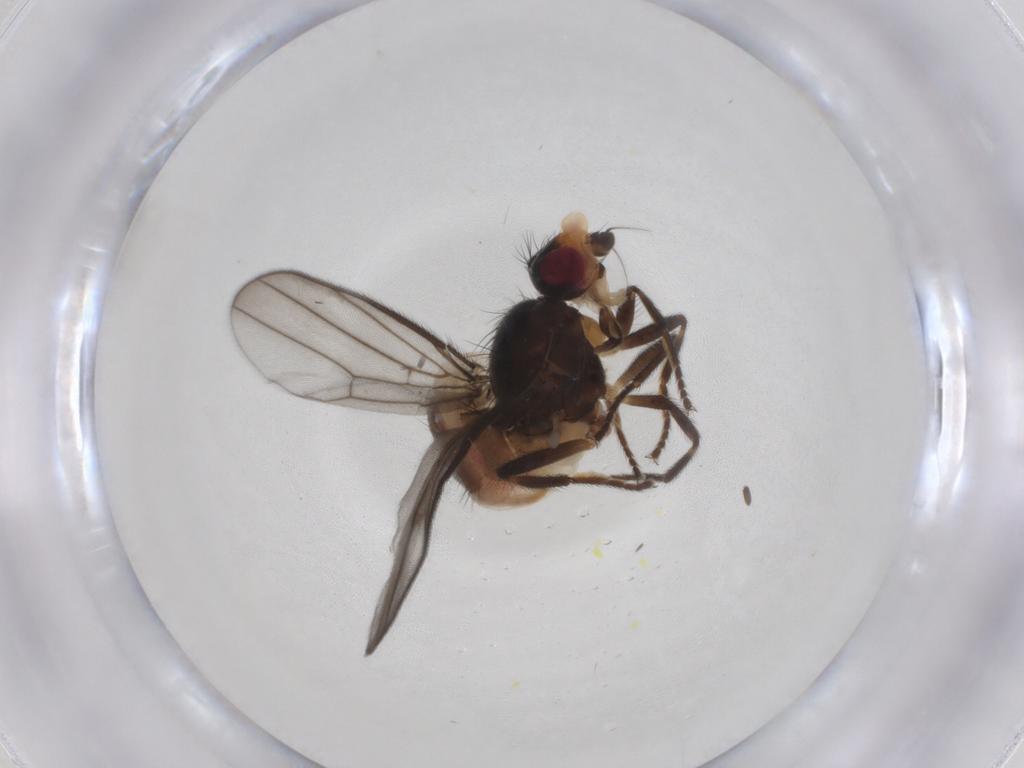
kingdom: Animalia
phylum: Arthropoda
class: Insecta
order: Diptera
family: Chloropidae
